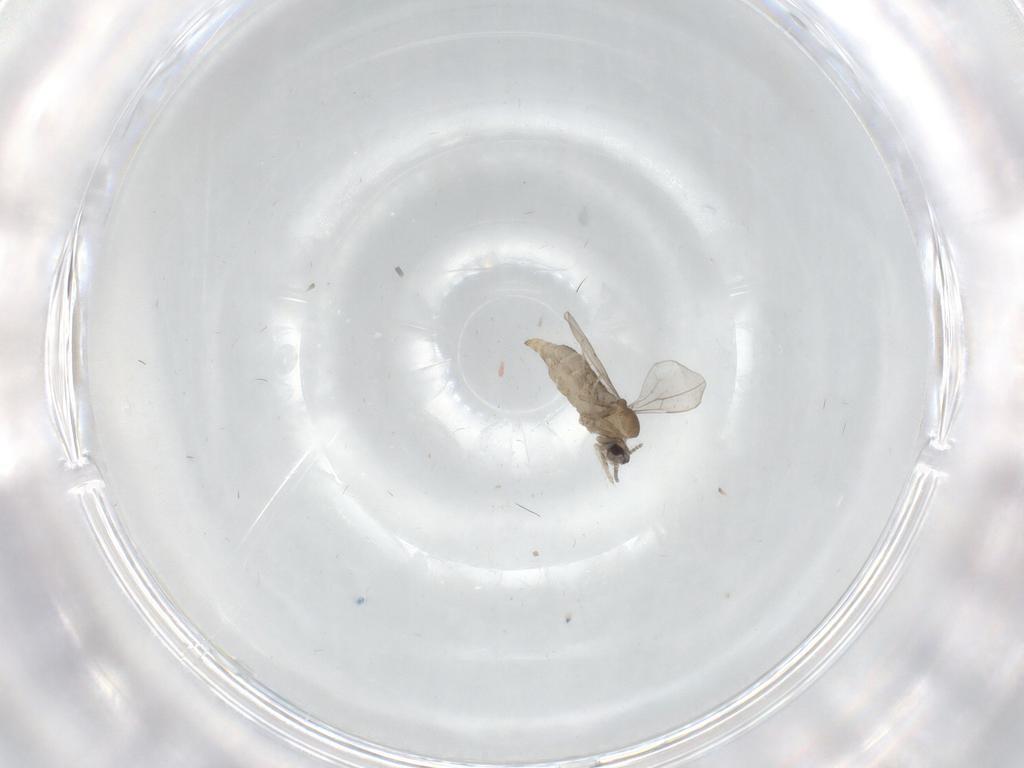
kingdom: Animalia
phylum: Arthropoda
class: Insecta
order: Diptera
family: Cecidomyiidae
